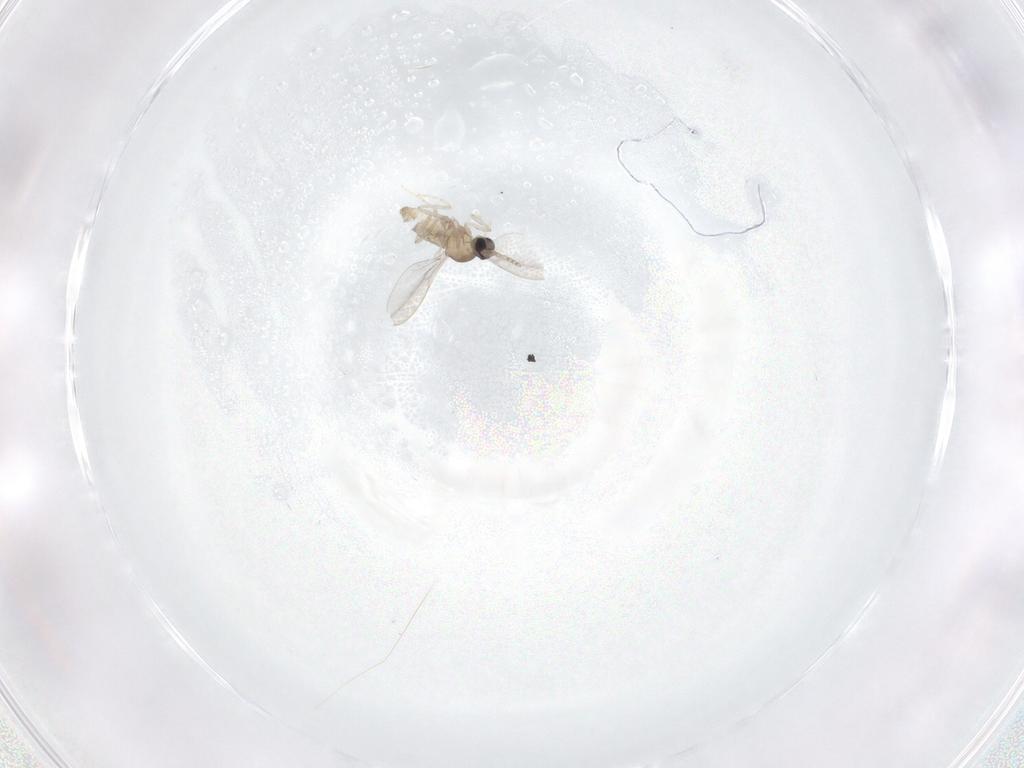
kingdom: Animalia
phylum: Arthropoda
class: Insecta
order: Diptera
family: Cecidomyiidae
